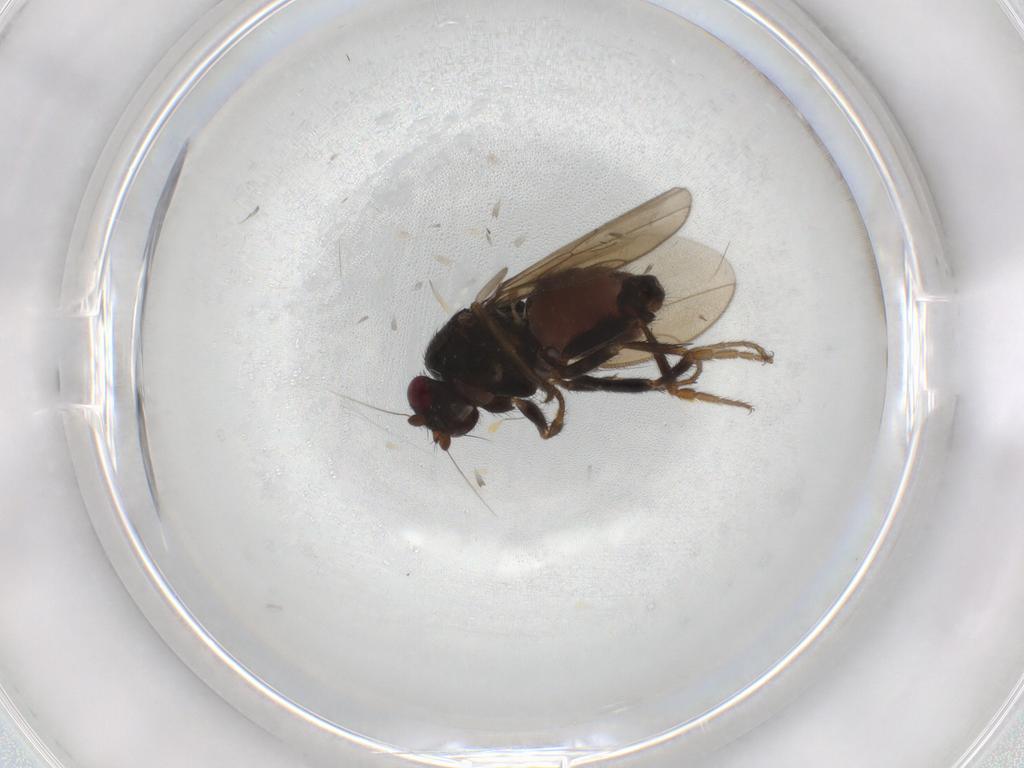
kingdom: Animalia
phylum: Arthropoda
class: Insecta
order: Diptera
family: Sphaeroceridae
